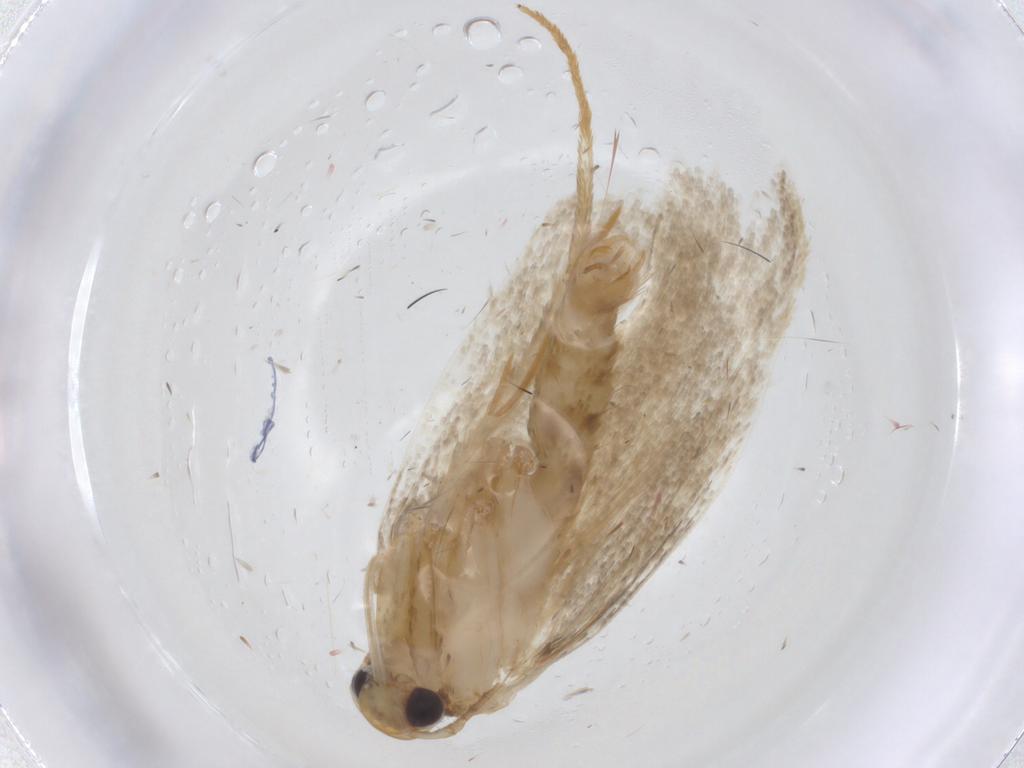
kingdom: Animalia
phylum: Arthropoda
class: Insecta
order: Lepidoptera
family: Gelechiidae
